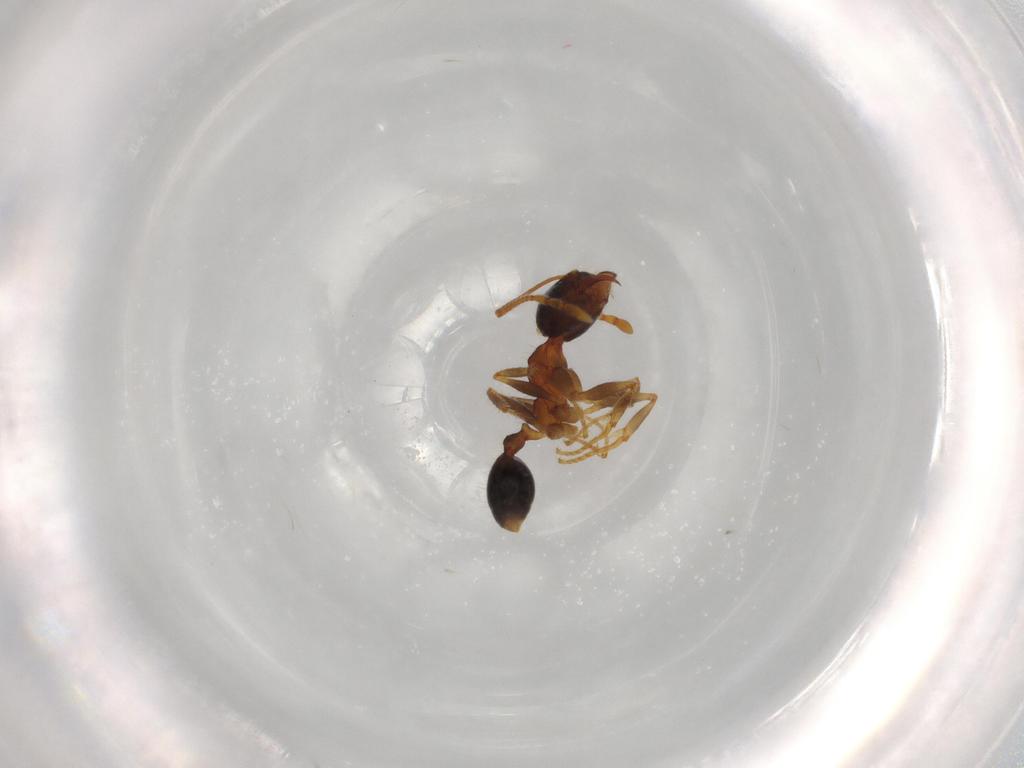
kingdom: Animalia
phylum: Arthropoda
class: Insecta
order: Hymenoptera
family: Formicidae
